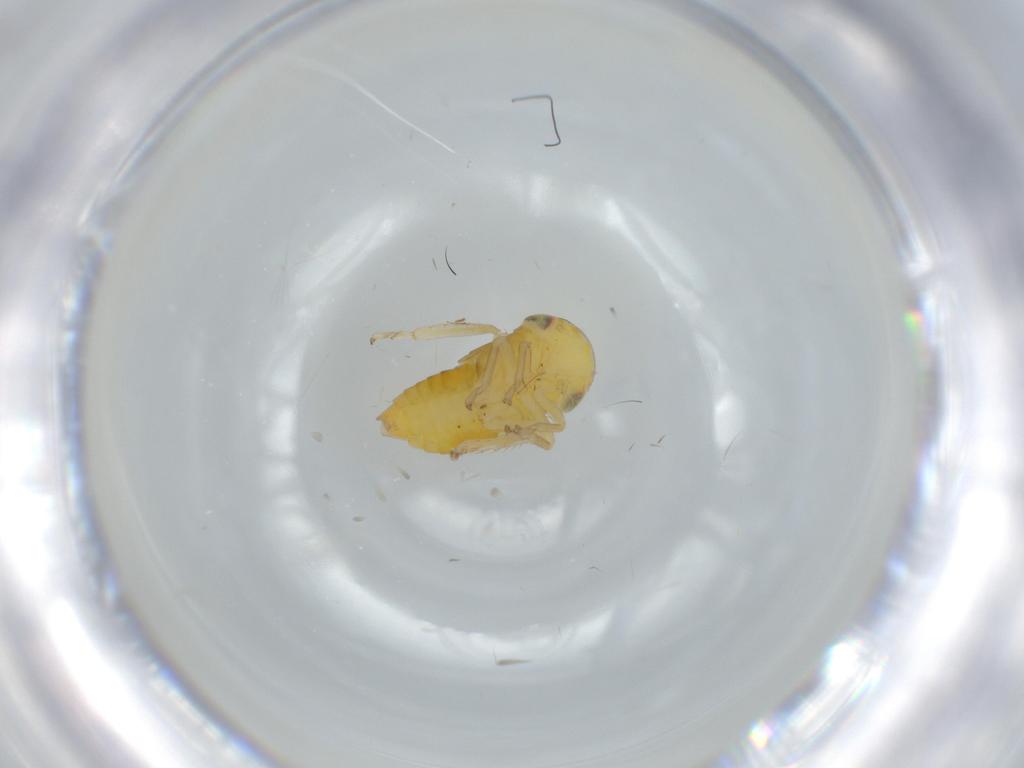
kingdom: Animalia
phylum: Arthropoda
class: Insecta
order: Hemiptera
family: Cicadellidae
